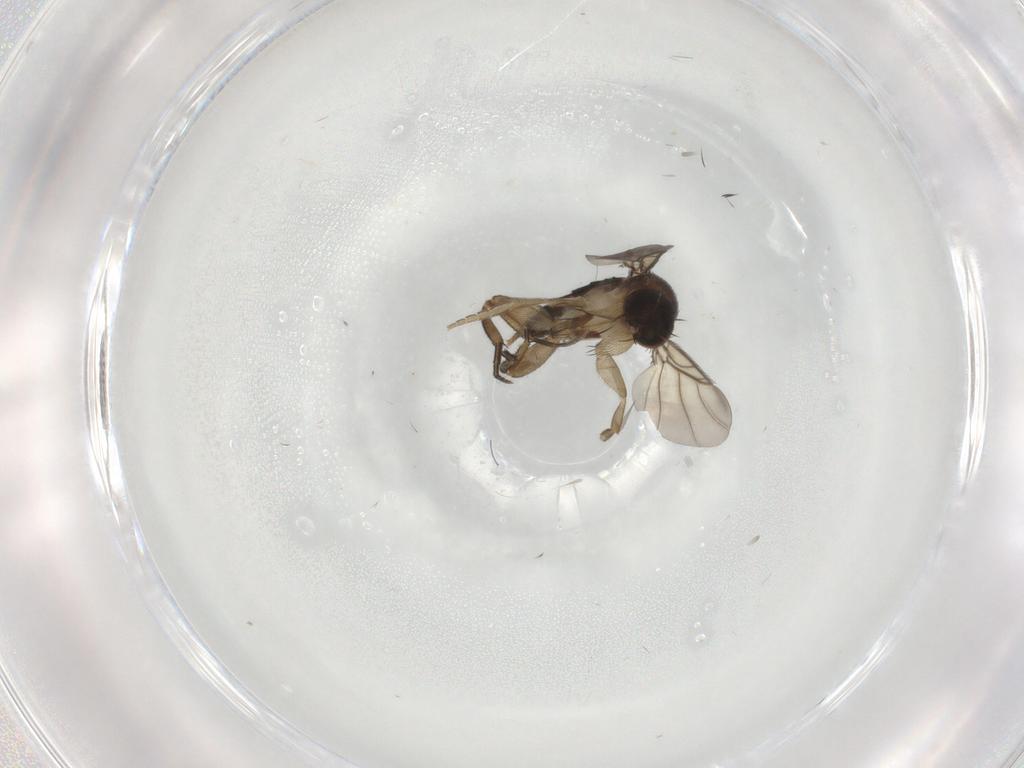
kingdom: Animalia
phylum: Arthropoda
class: Insecta
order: Diptera
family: Phoridae
